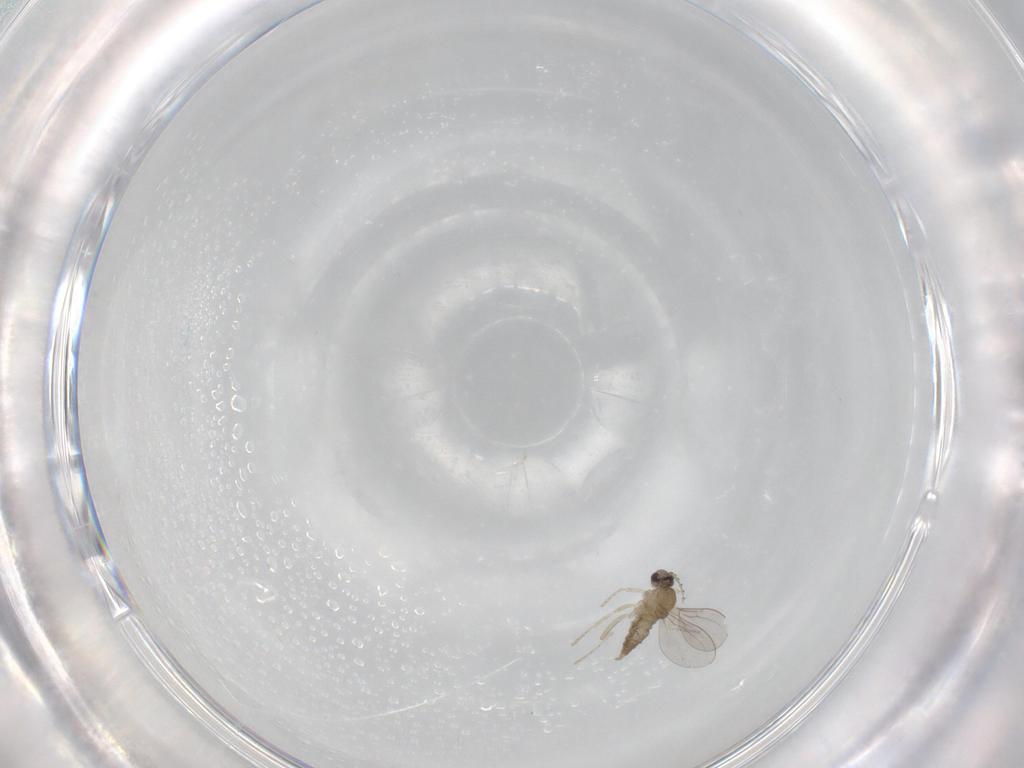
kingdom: Animalia
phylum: Arthropoda
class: Insecta
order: Diptera
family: Cecidomyiidae
